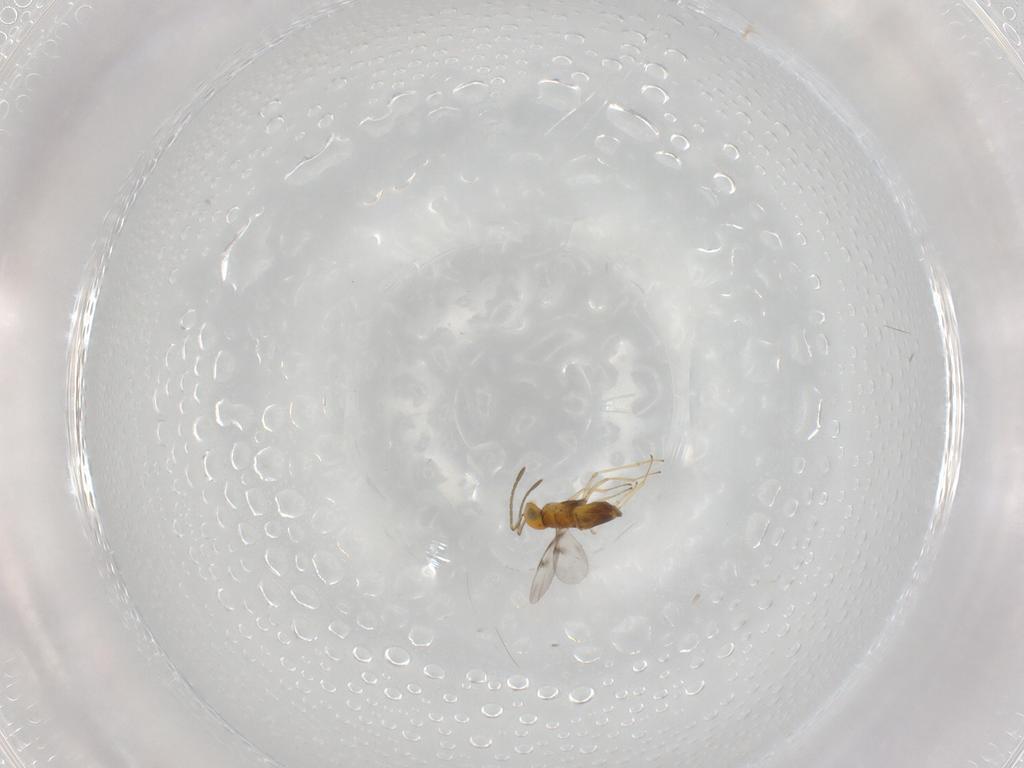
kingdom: Animalia
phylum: Arthropoda
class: Insecta
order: Hymenoptera
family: Encyrtidae
